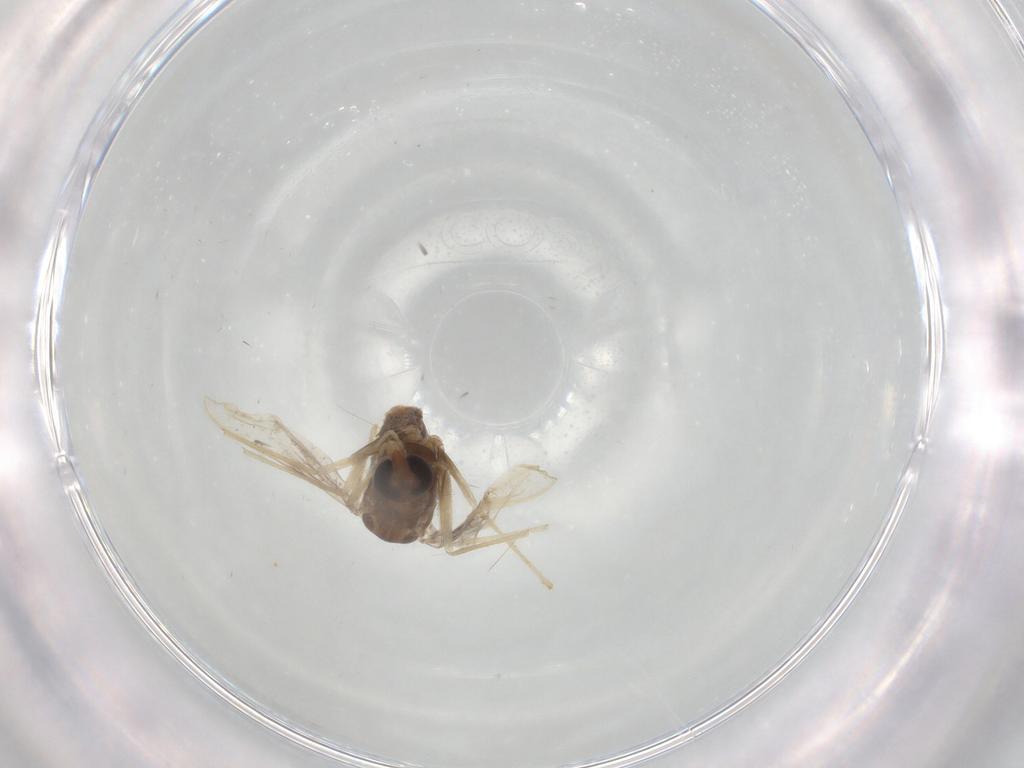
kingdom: Animalia
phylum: Arthropoda
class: Insecta
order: Diptera
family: Chironomidae
